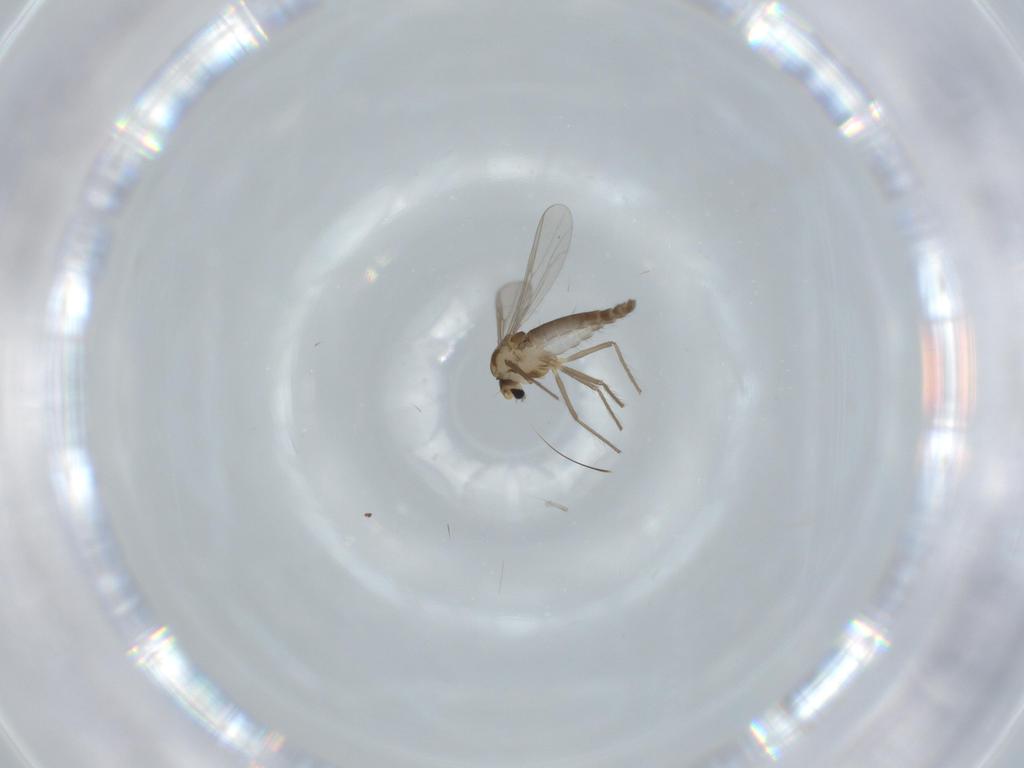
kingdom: Animalia
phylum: Arthropoda
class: Insecta
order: Diptera
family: Chironomidae
